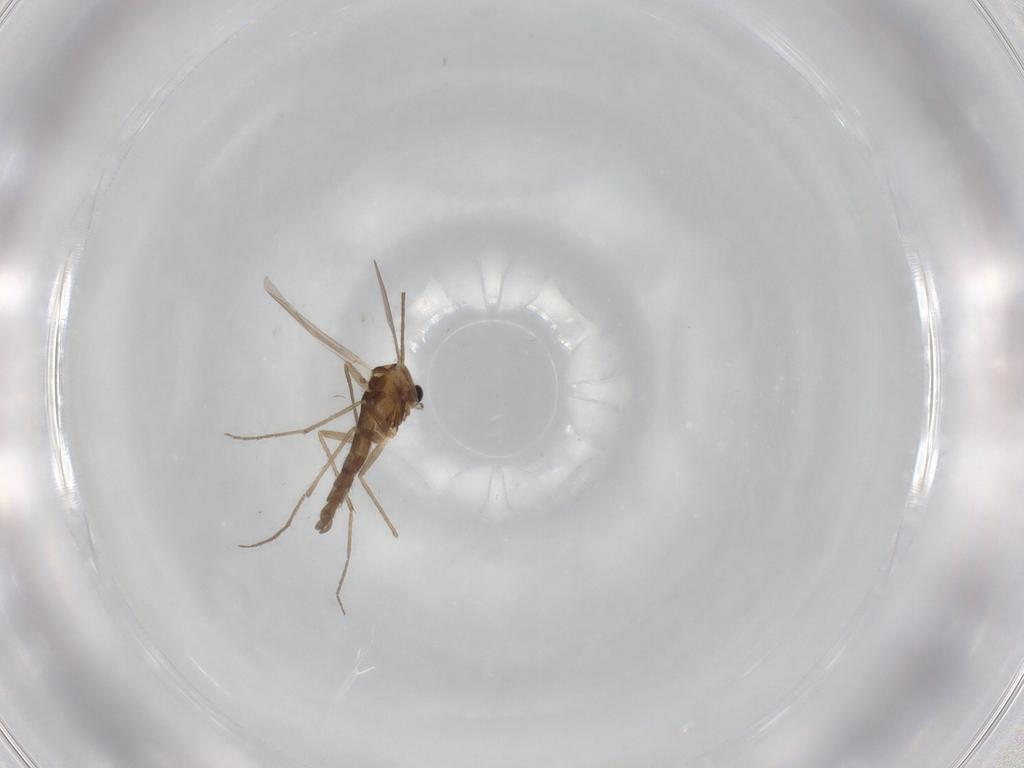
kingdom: Animalia
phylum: Arthropoda
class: Insecta
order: Diptera
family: Chironomidae
